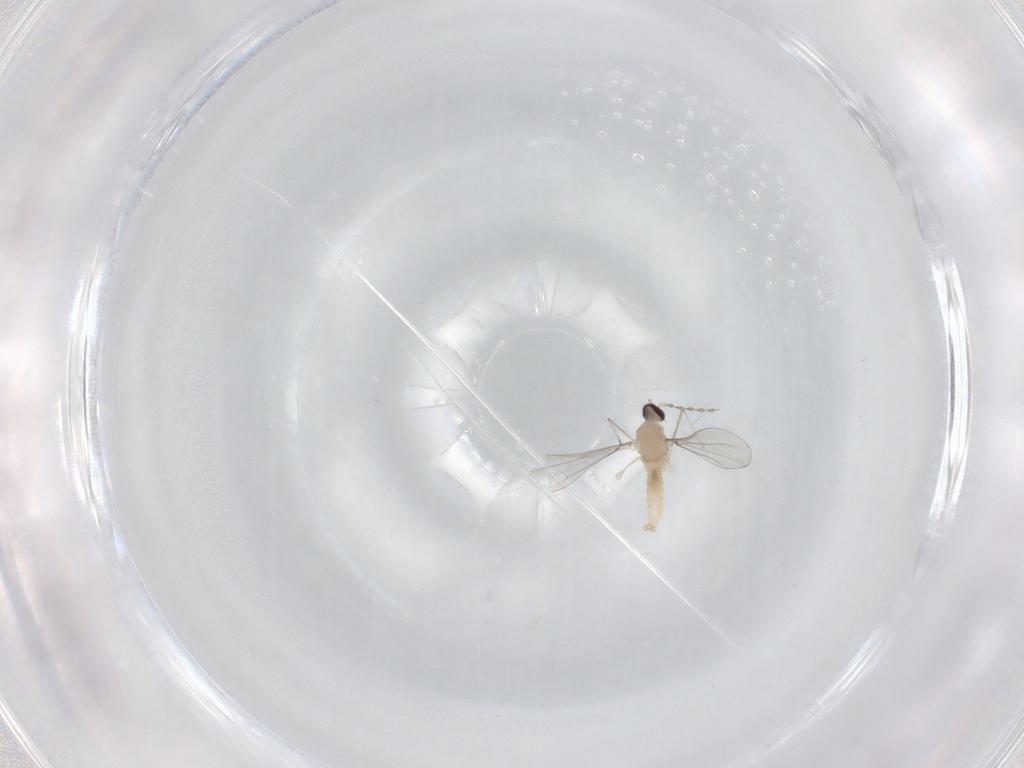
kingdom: Animalia
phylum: Arthropoda
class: Insecta
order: Diptera
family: Cecidomyiidae
